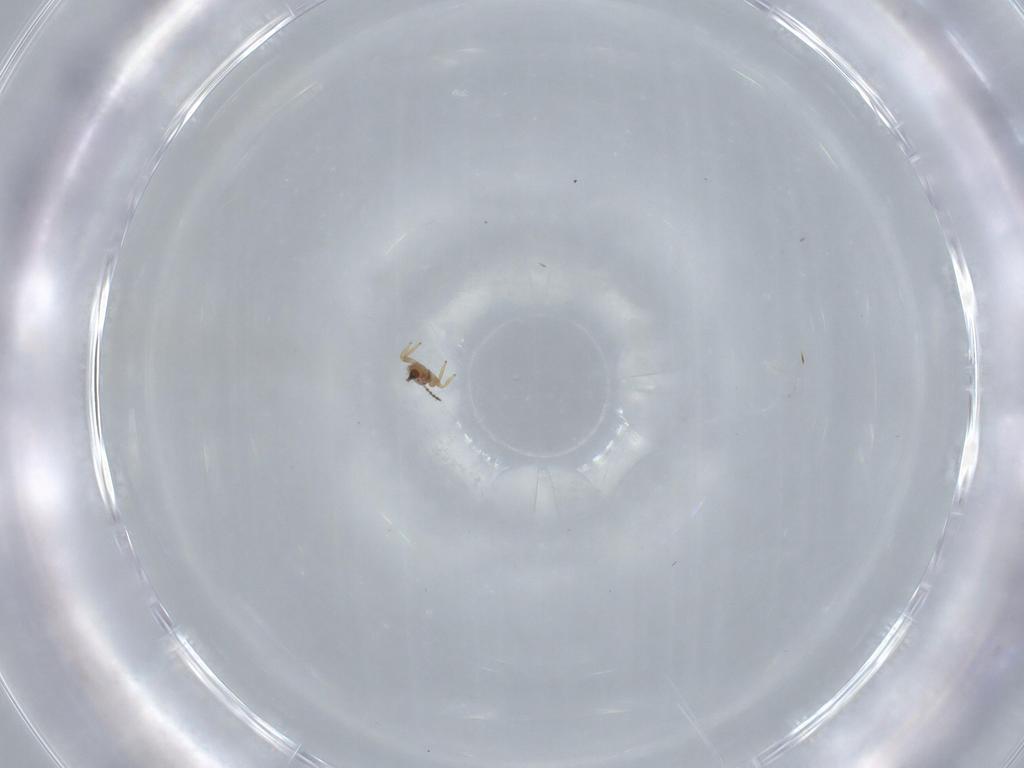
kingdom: Animalia
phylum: Arthropoda
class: Insecta
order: Thysanoptera
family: Phlaeothripidae
